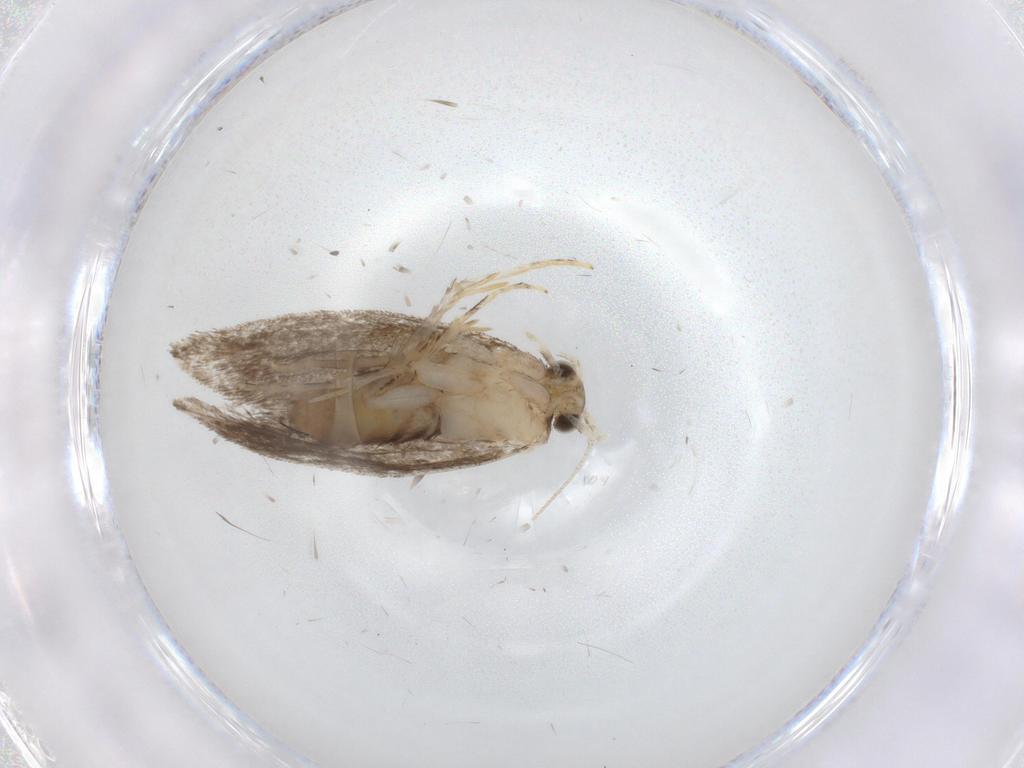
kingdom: Animalia
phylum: Arthropoda
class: Insecta
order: Lepidoptera
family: Tineidae
